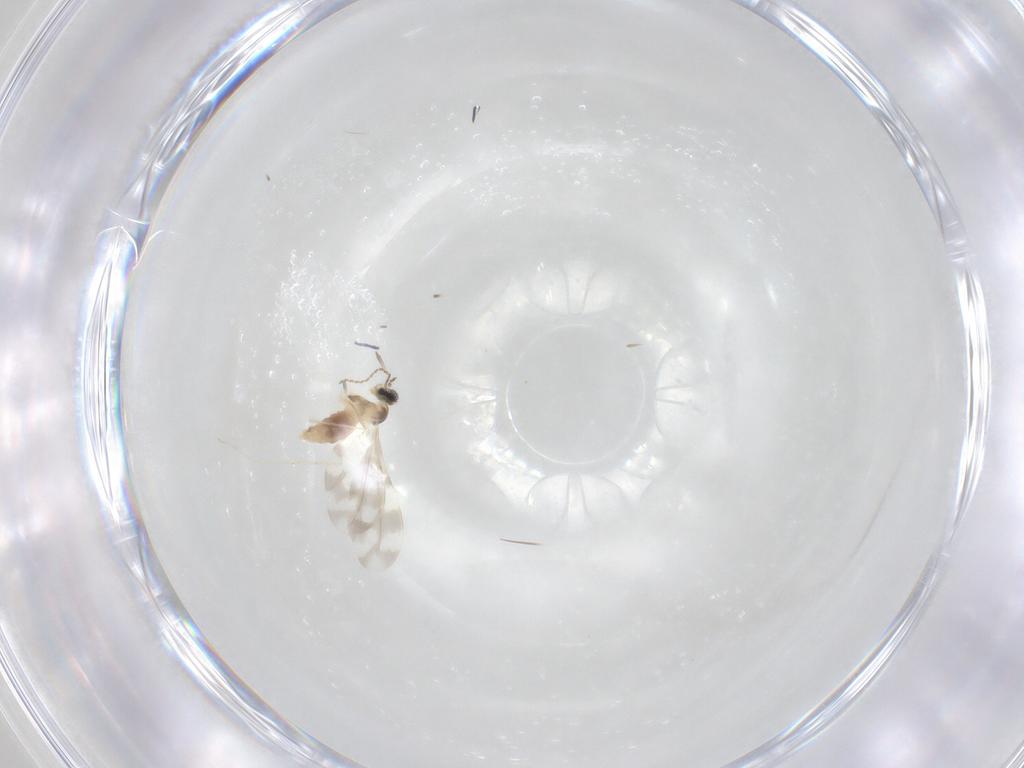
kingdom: Animalia
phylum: Arthropoda
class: Insecta
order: Diptera
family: Cecidomyiidae
